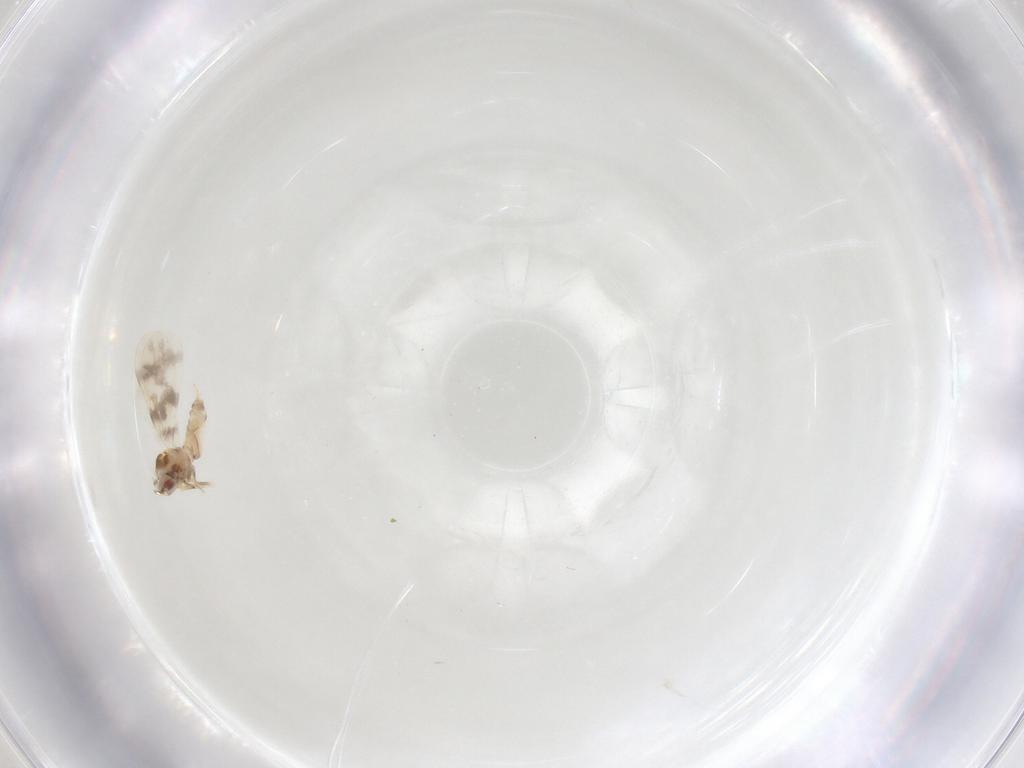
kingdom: Animalia
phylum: Arthropoda
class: Insecta
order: Hemiptera
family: Aleyrodidae
